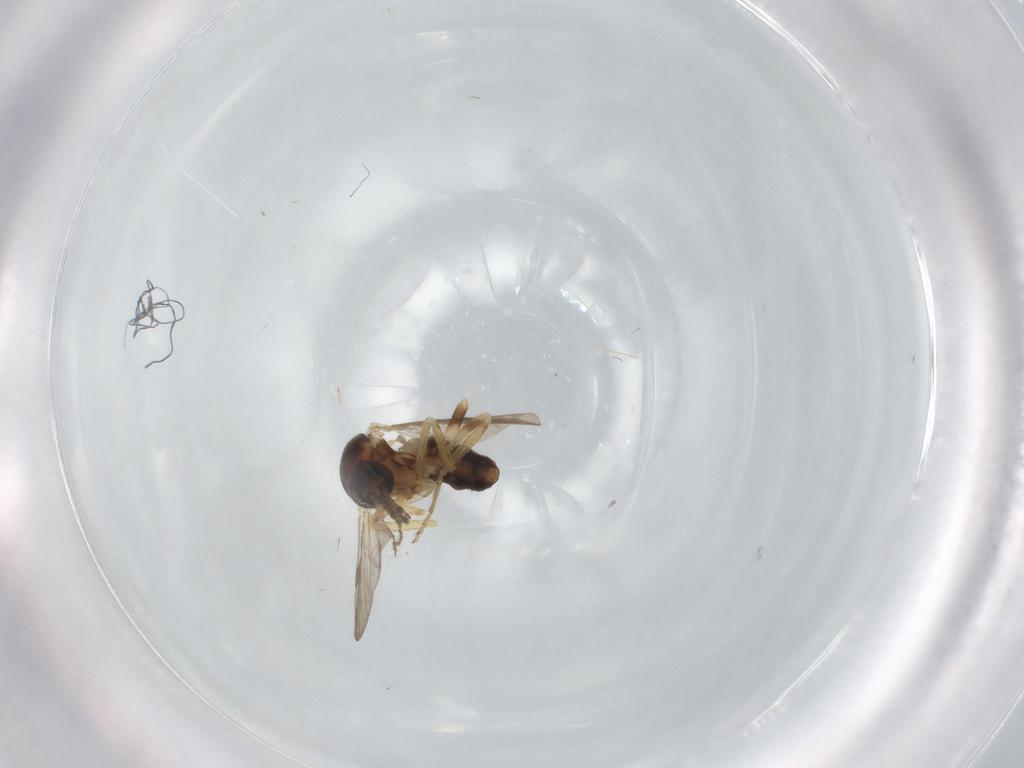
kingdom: Animalia
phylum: Arthropoda
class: Insecta
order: Diptera
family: Ceratopogonidae
